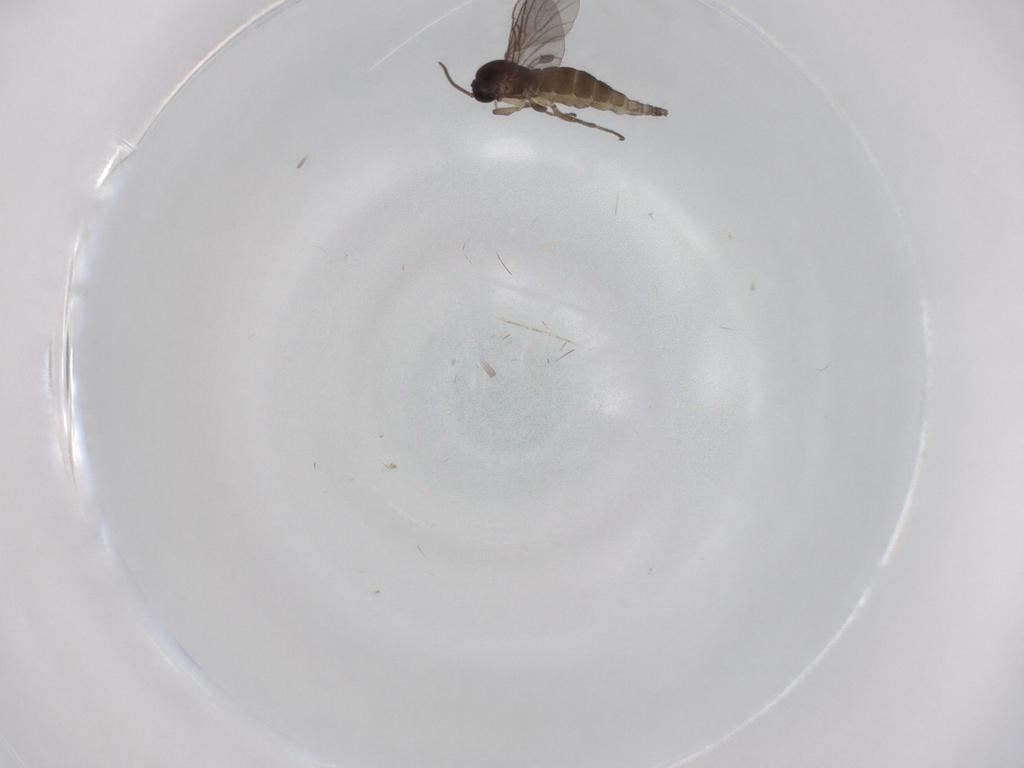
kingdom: Animalia
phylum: Arthropoda
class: Insecta
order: Diptera
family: Sciaridae
